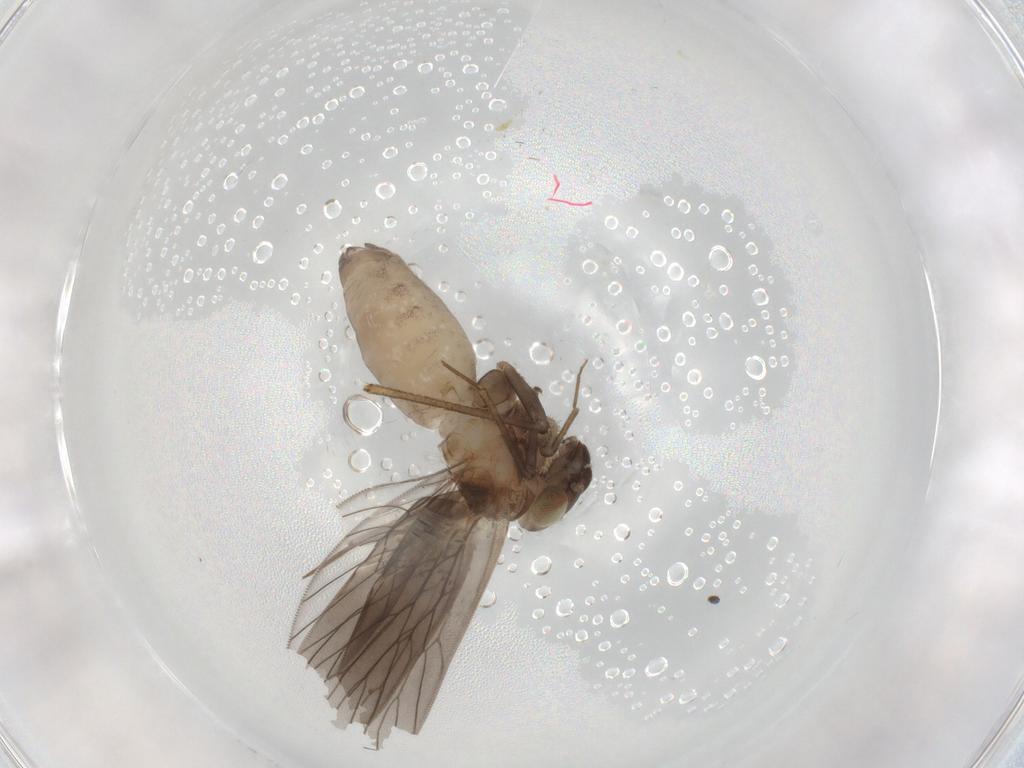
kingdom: Animalia
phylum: Arthropoda
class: Insecta
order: Psocodea
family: Lepidopsocidae
